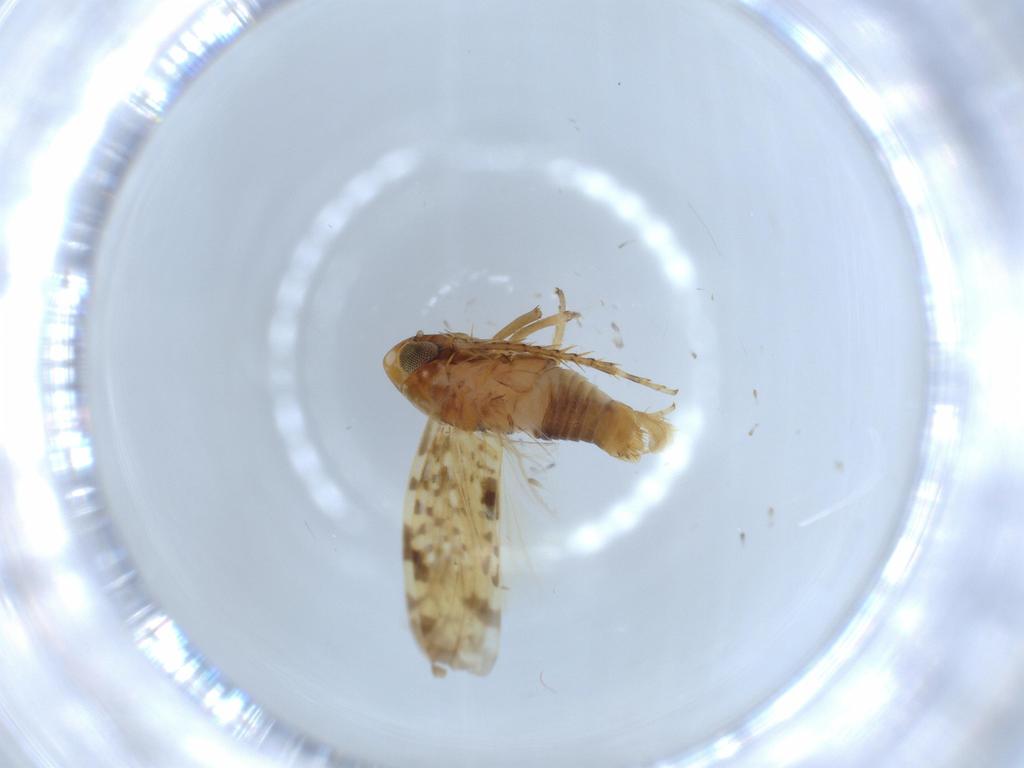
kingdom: Animalia
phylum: Arthropoda
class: Insecta
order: Hemiptera
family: Cicadellidae
